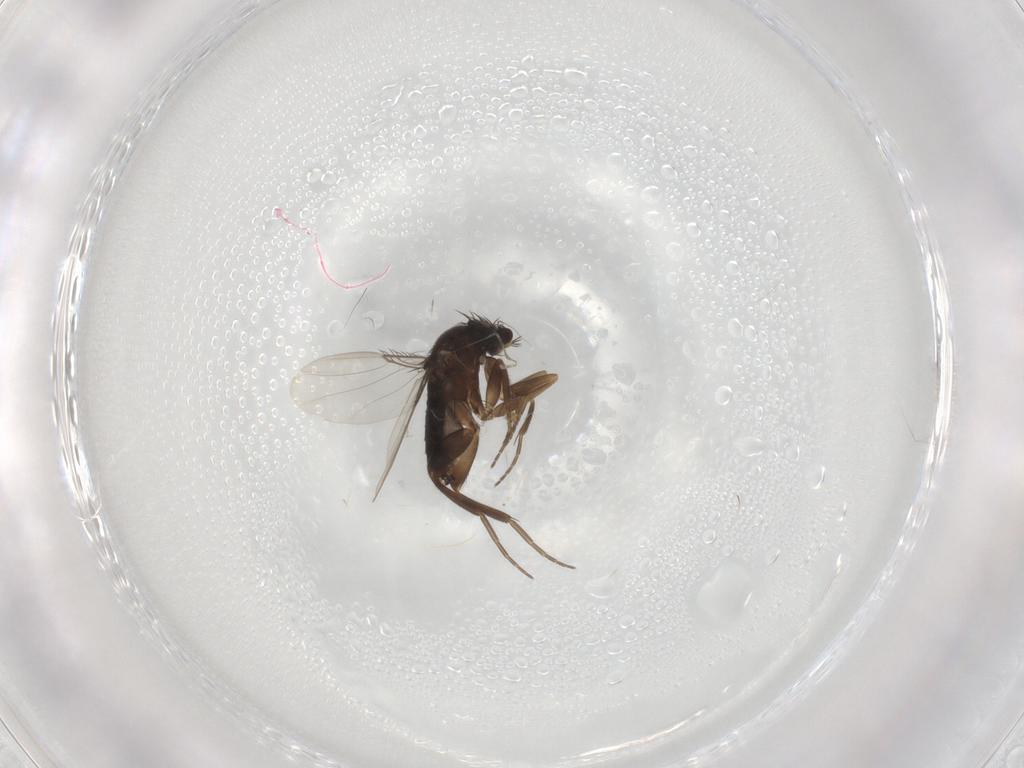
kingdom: Animalia
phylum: Arthropoda
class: Insecta
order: Diptera
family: Phoridae
